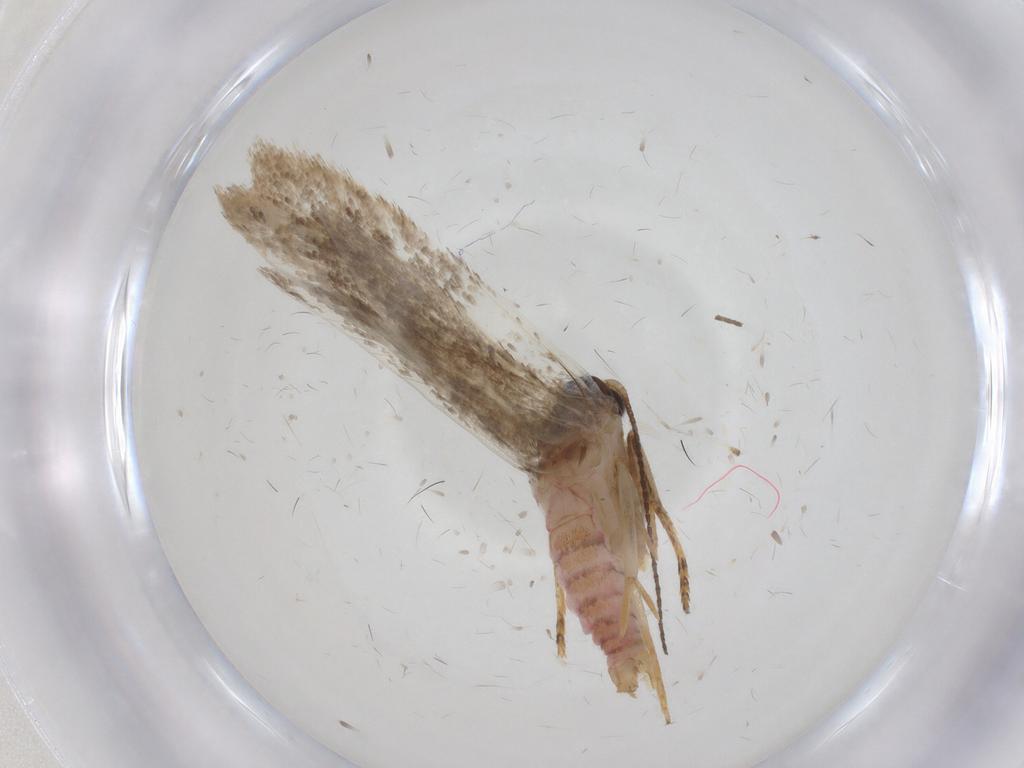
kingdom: Animalia
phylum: Arthropoda
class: Insecta
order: Lepidoptera
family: Oecophoridae
